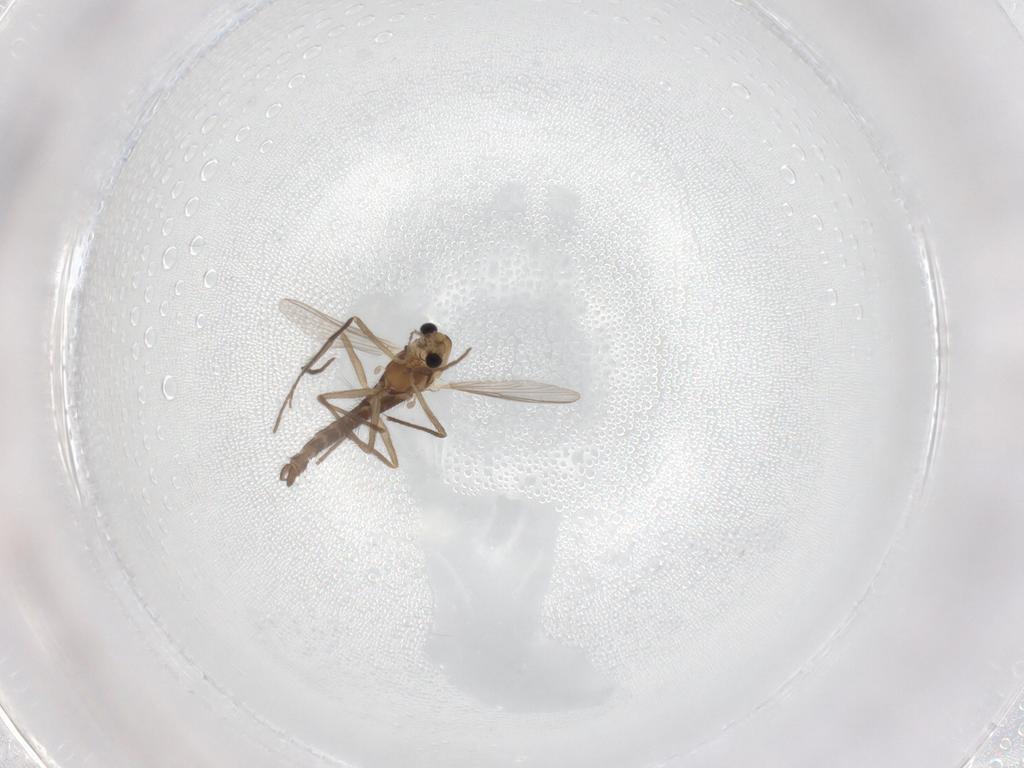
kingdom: Animalia
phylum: Arthropoda
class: Insecta
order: Diptera
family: Chironomidae
